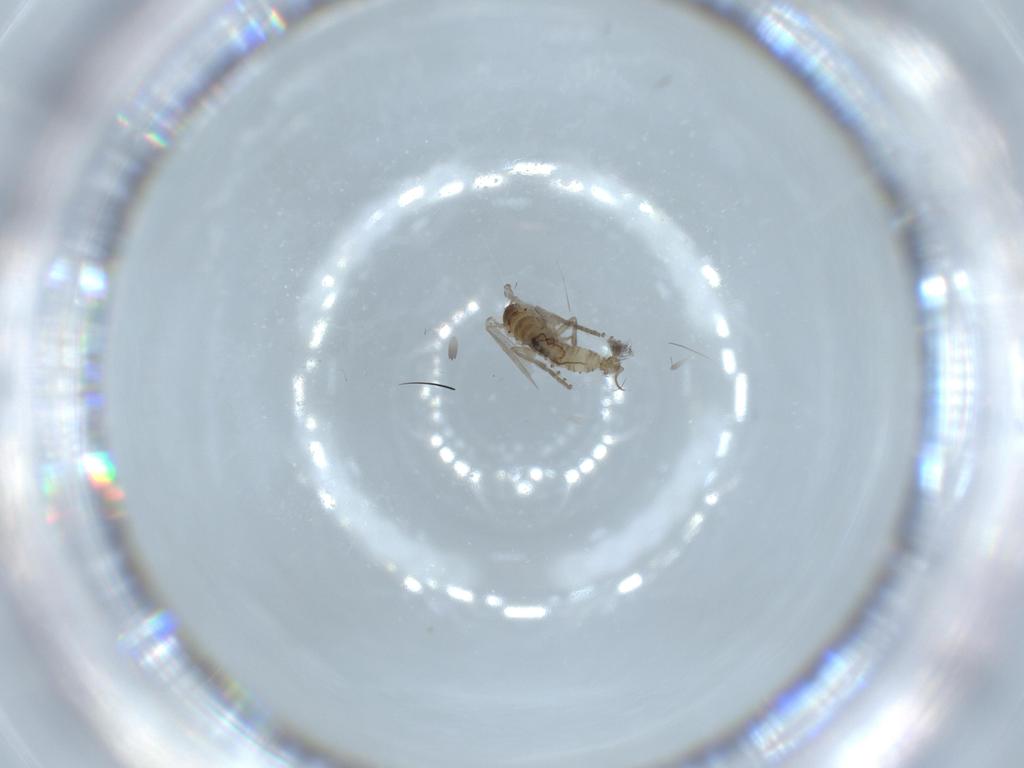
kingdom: Animalia
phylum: Arthropoda
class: Insecta
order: Diptera
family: Psychodidae
